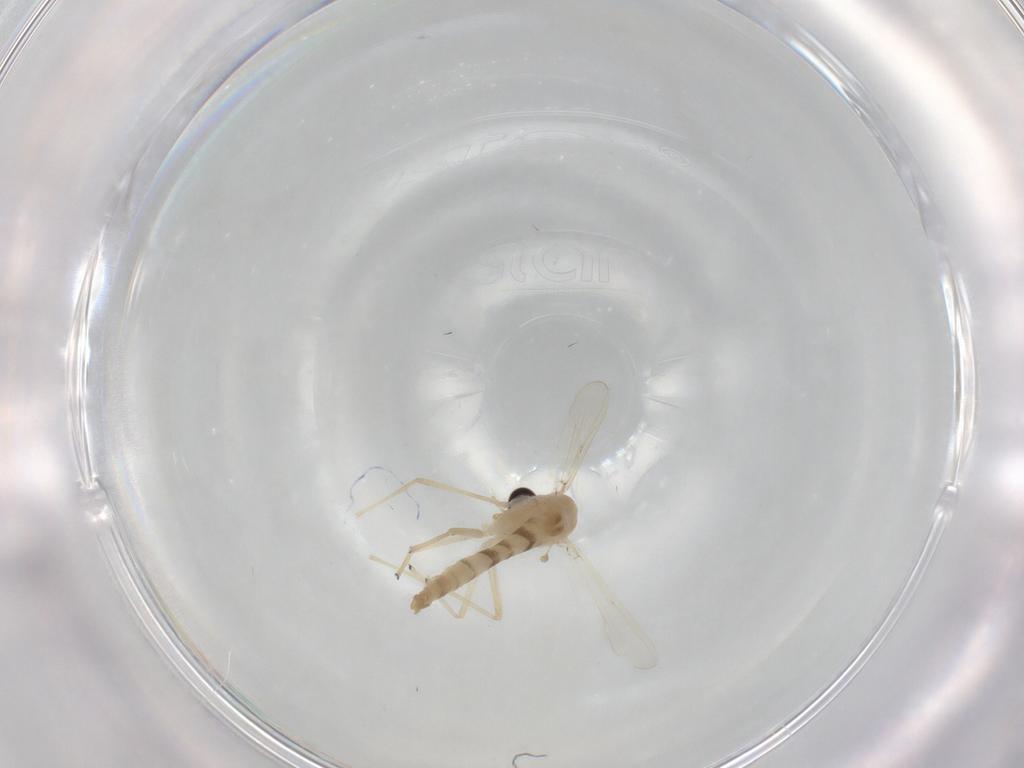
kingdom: Animalia
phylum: Arthropoda
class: Insecta
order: Diptera
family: Chironomidae
